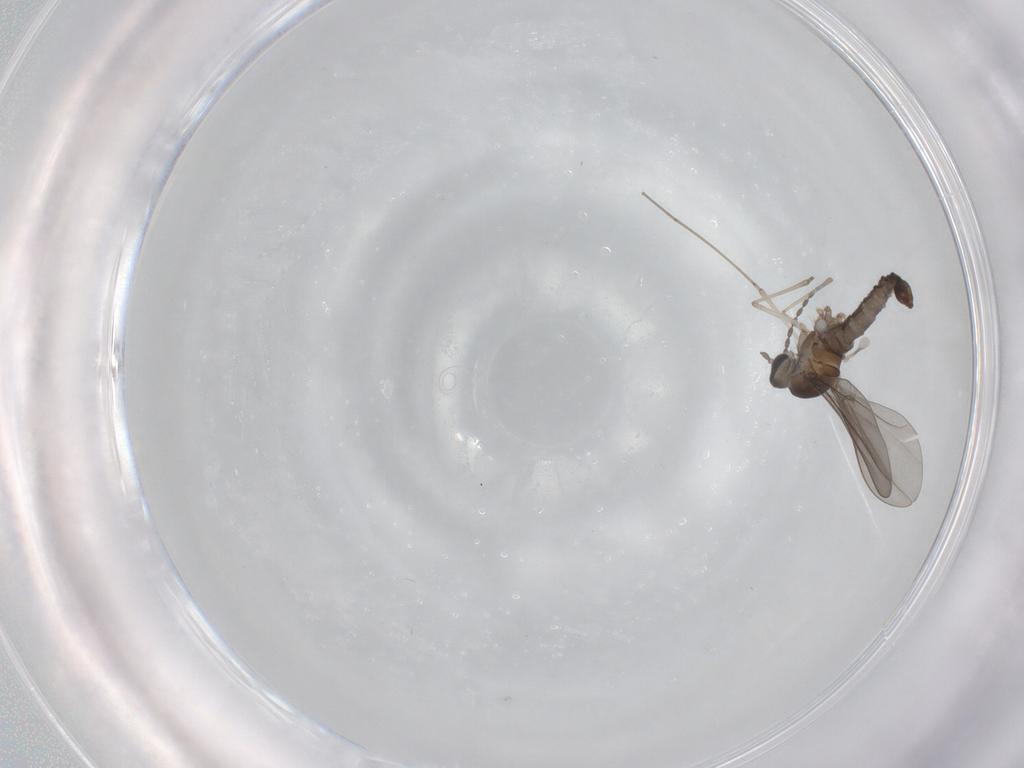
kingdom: Animalia
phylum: Arthropoda
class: Insecta
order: Diptera
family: Cecidomyiidae
